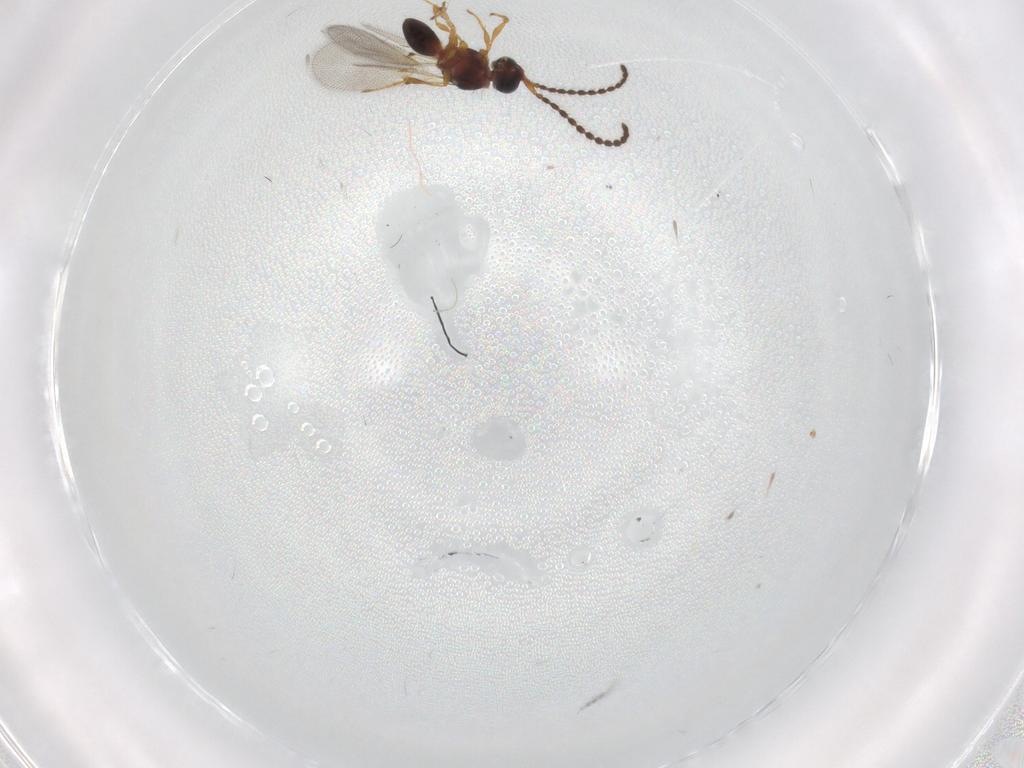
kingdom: Animalia
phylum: Arthropoda
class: Insecta
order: Hymenoptera
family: Diapriidae
